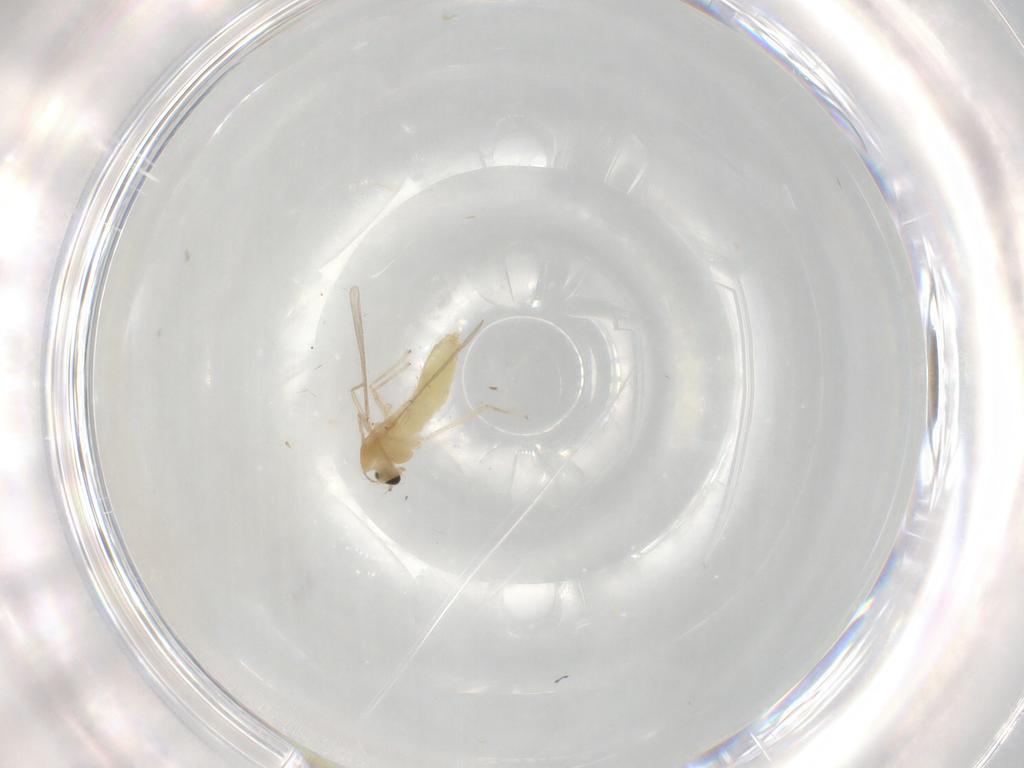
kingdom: Animalia
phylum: Arthropoda
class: Insecta
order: Diptera
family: Chironomidae
